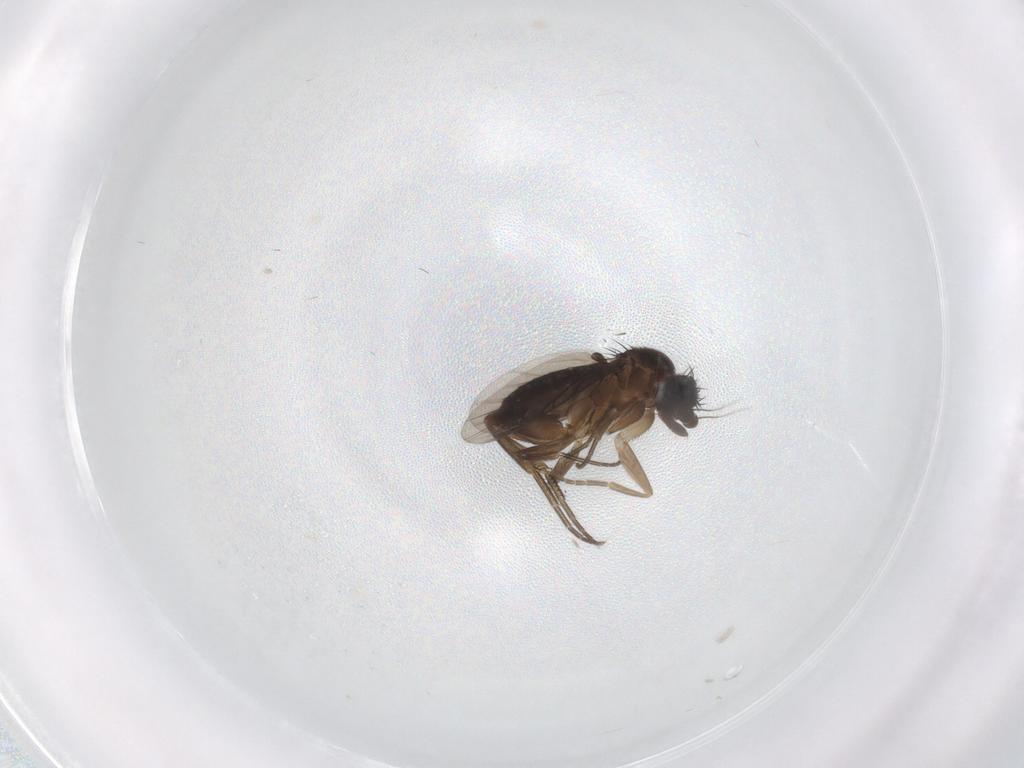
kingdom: Animalia
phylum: Arthropoda
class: Insecta
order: Diptera
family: Phoridae
